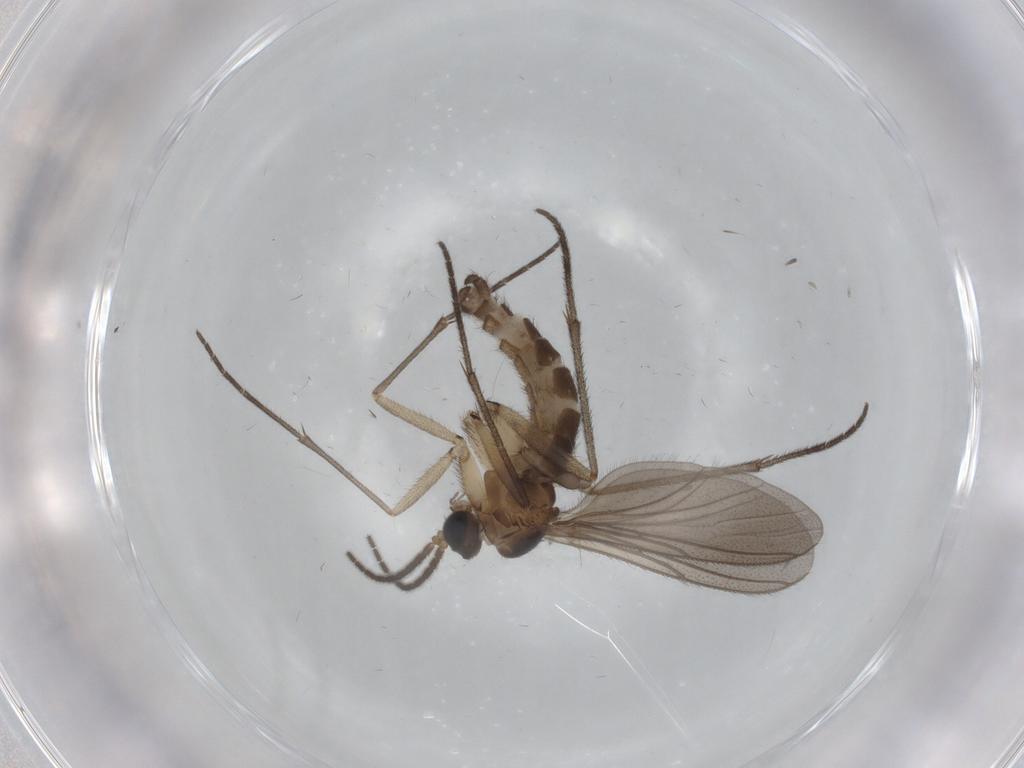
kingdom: Animalia
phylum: Arthropoda
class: Insecta
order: Diptera
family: Sciaridae
